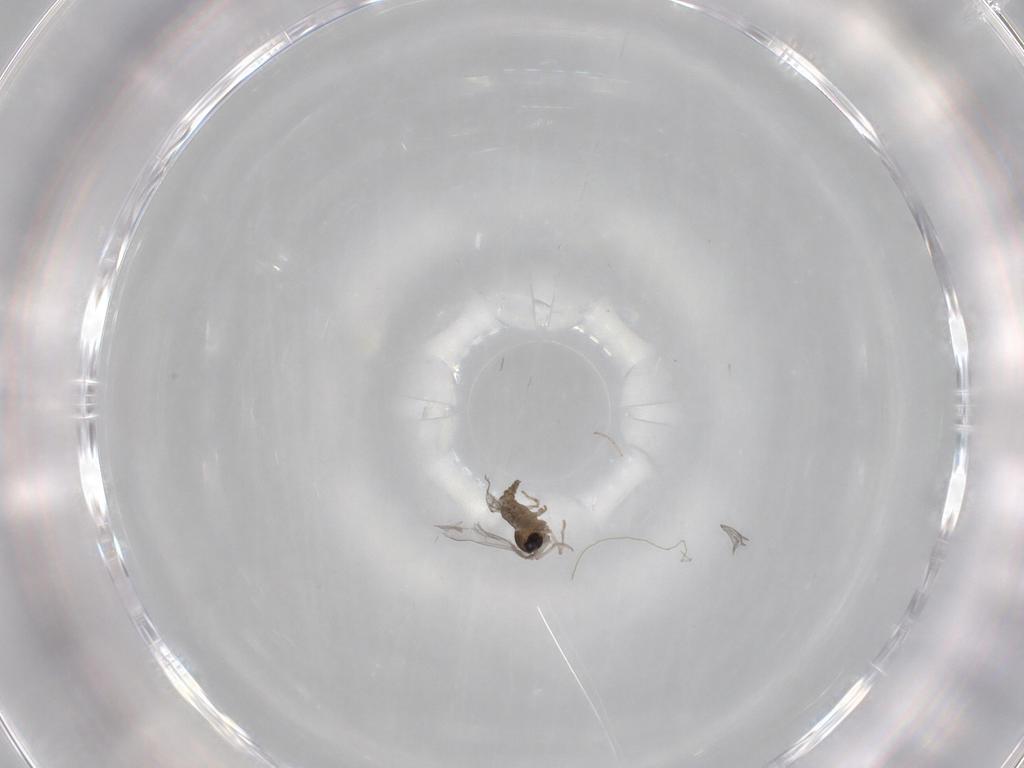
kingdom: Animalia
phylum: Arthropoda
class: Insecta
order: Diptera
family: Cecidomyiidae
